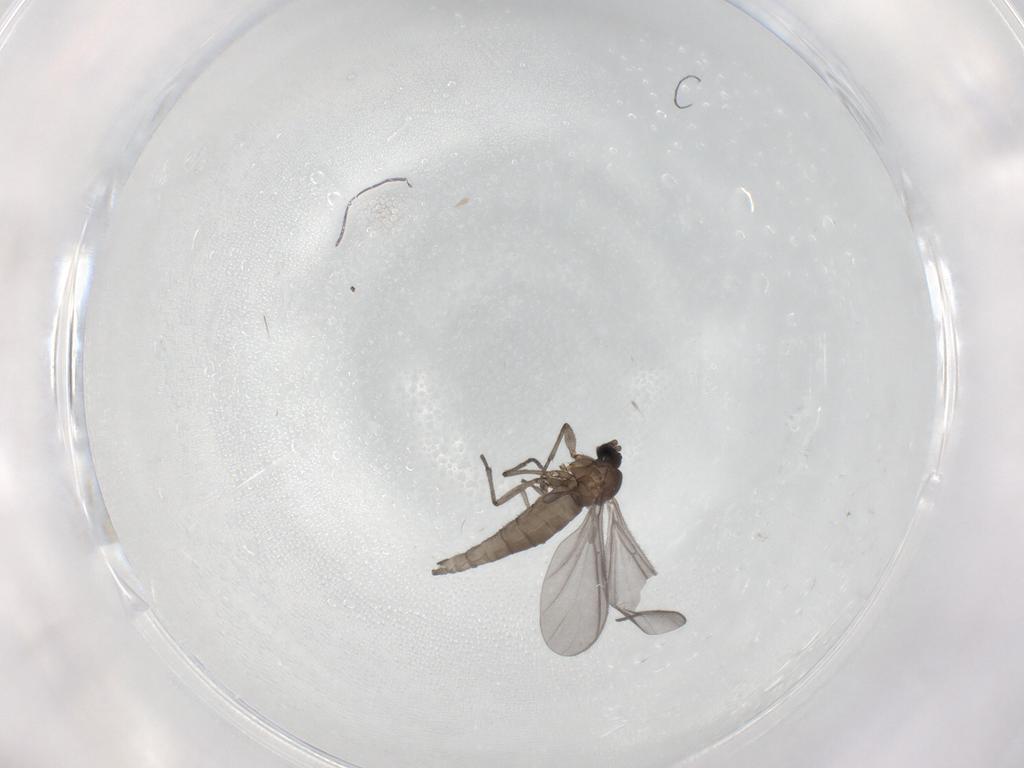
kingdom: Animalia
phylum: Arthropoda
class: Insecta
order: Diptera
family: Sciaridae
